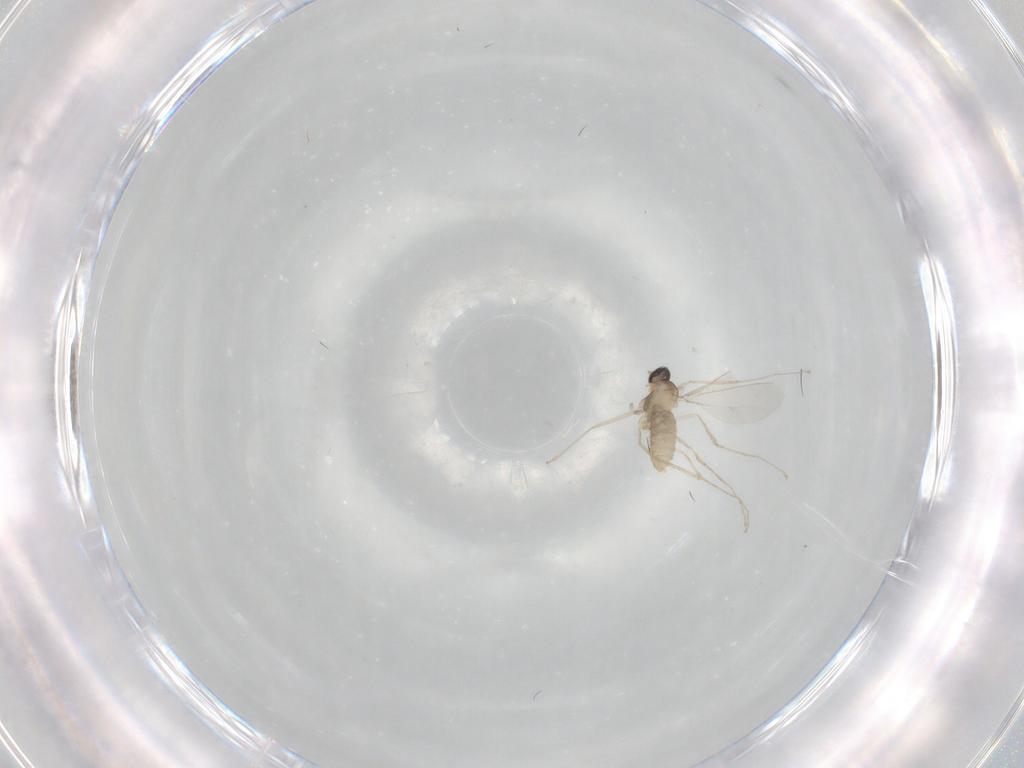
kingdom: Animalia
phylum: Arthropoda
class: Insecta
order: Diptera
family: Cecidomyiidae
